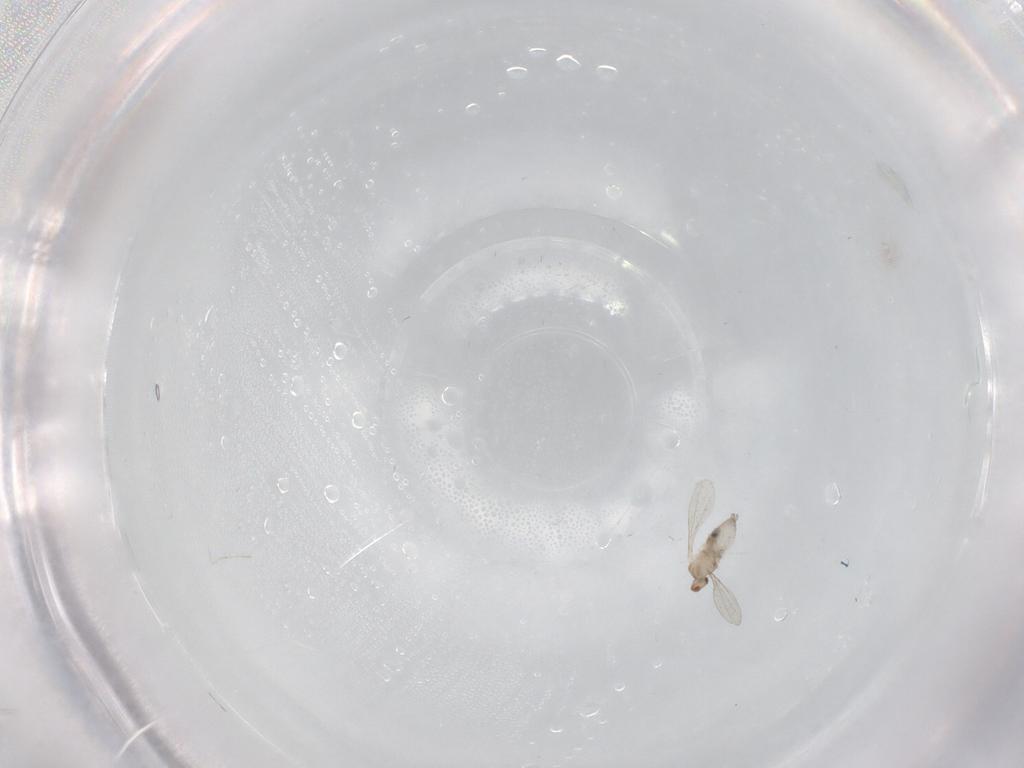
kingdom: Animalia
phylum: Arthropoda
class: Insecta
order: Diptera
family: Cecidomyiidae
